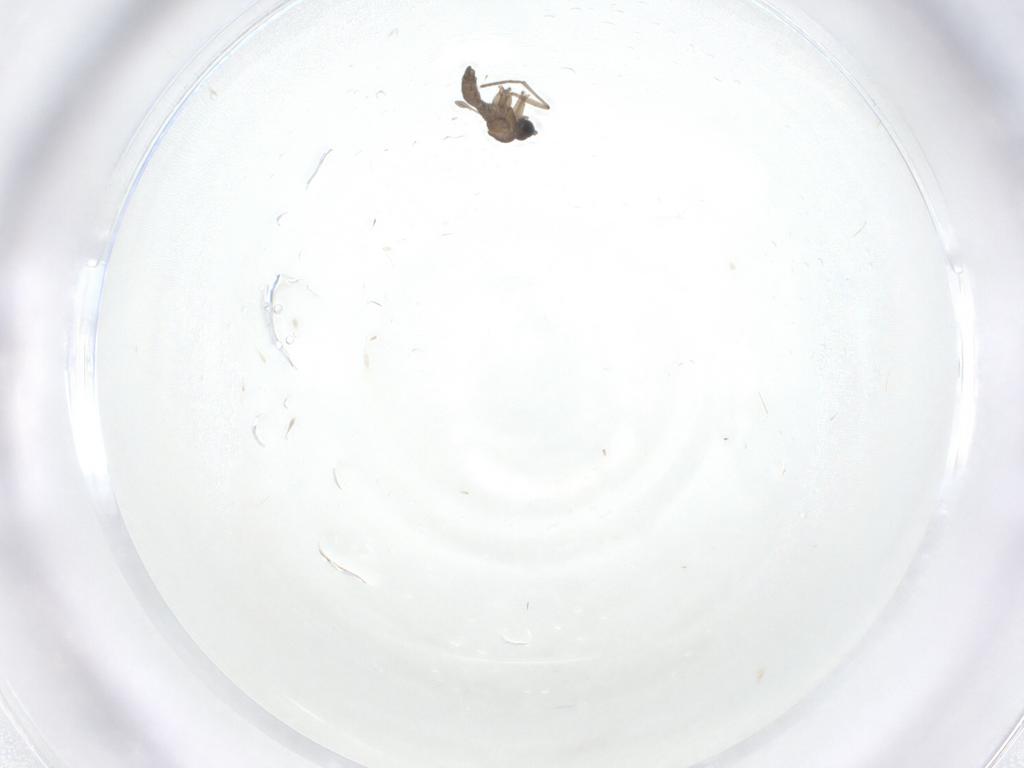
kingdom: Animalia
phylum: Arthropoda
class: Insecta
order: Diptera
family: Sciaridae
